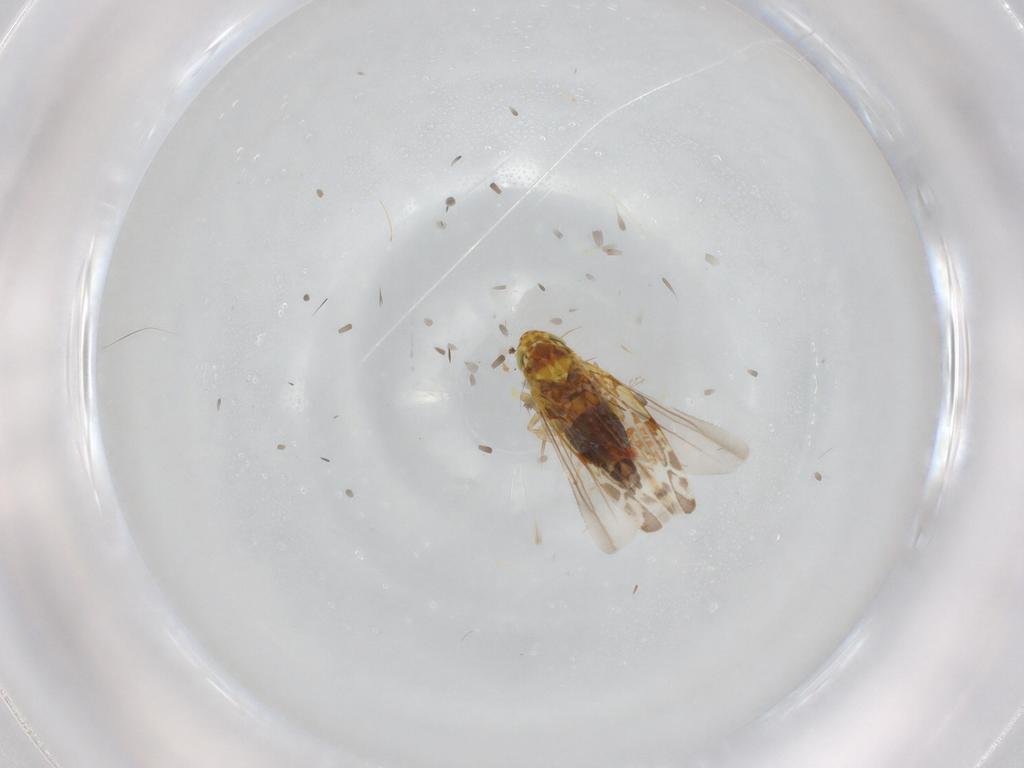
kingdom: Animalia
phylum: Arthropoda
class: Insecta
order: Hemiptera
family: Cicadellidae
